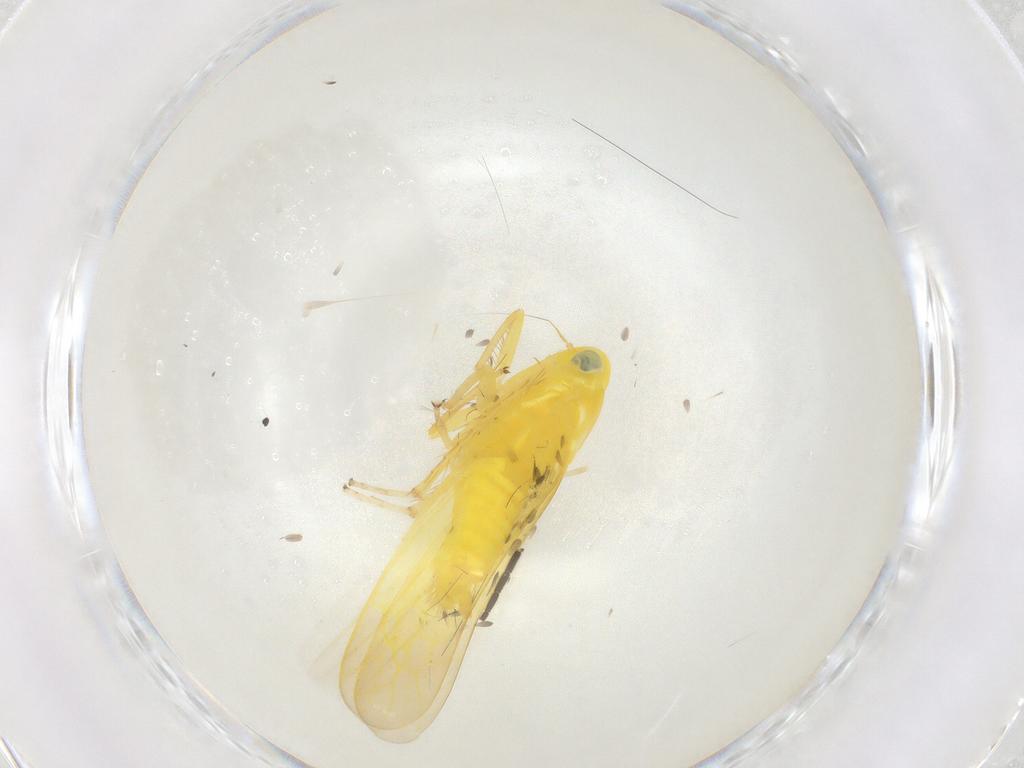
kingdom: Animalia
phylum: Arthropoda
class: Insecta
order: Hemiptera
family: Cicadellidae
